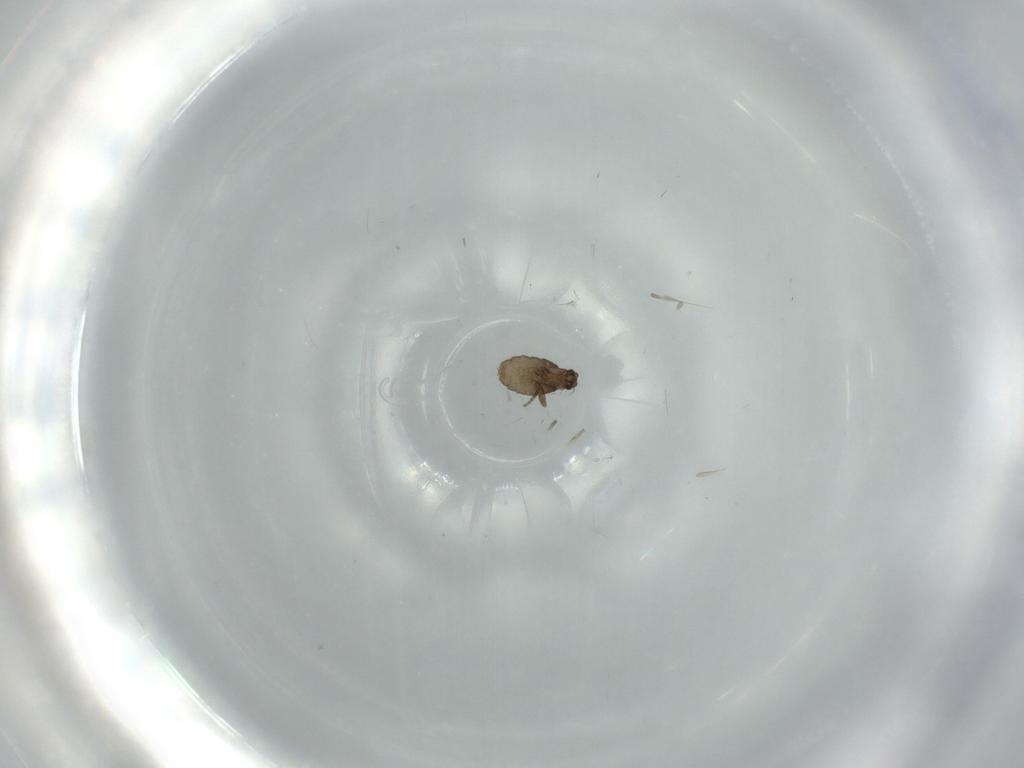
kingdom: Animalia
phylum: Arthropoda
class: Insecta
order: Diptera
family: Phoridae
